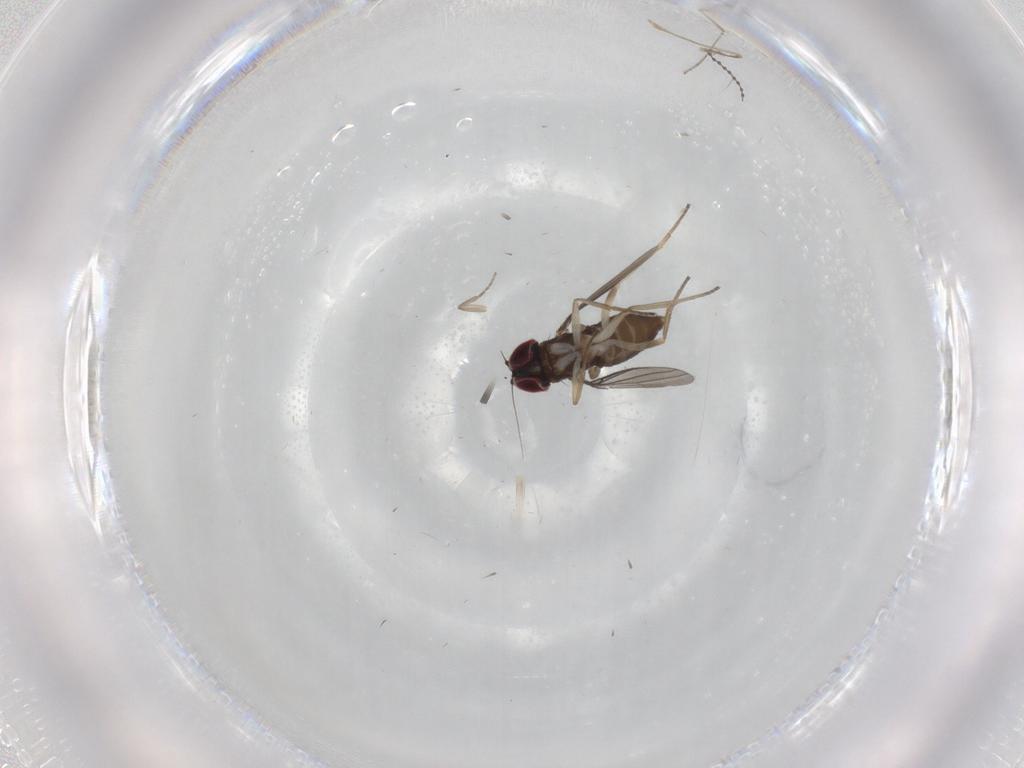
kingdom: Animalia
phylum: Arthropoda
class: Insecta
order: Diptera
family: Cecidomyiidae
